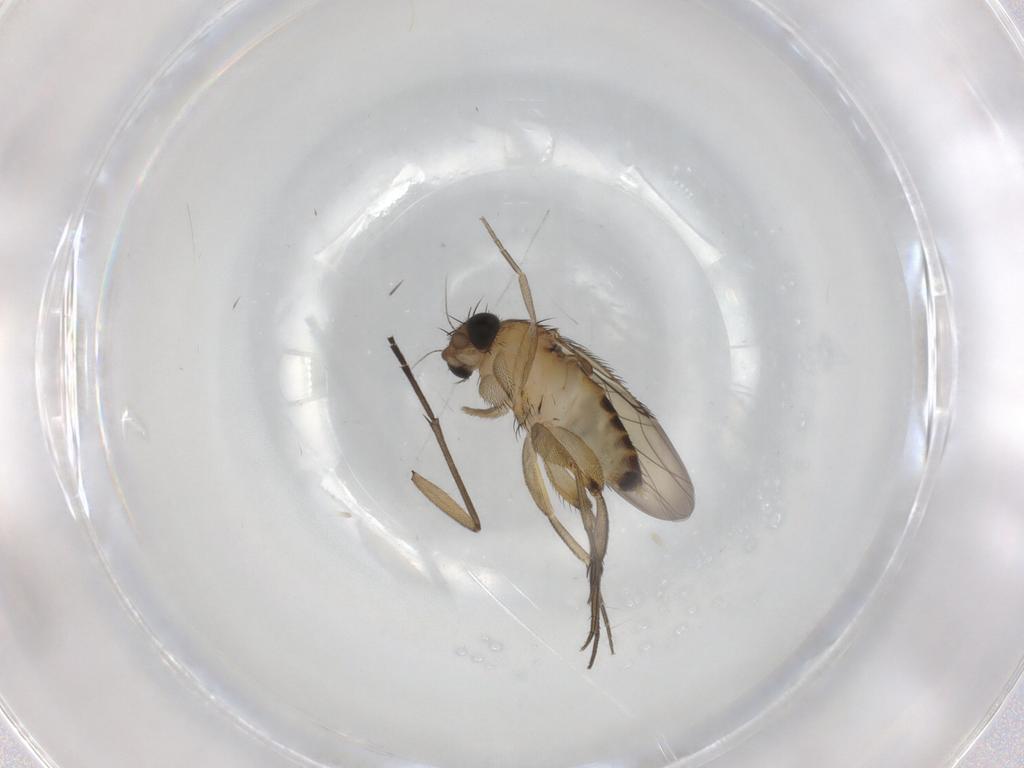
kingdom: Animalia
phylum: Arthropoda
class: Insecta
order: Diptera
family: Phoridae
